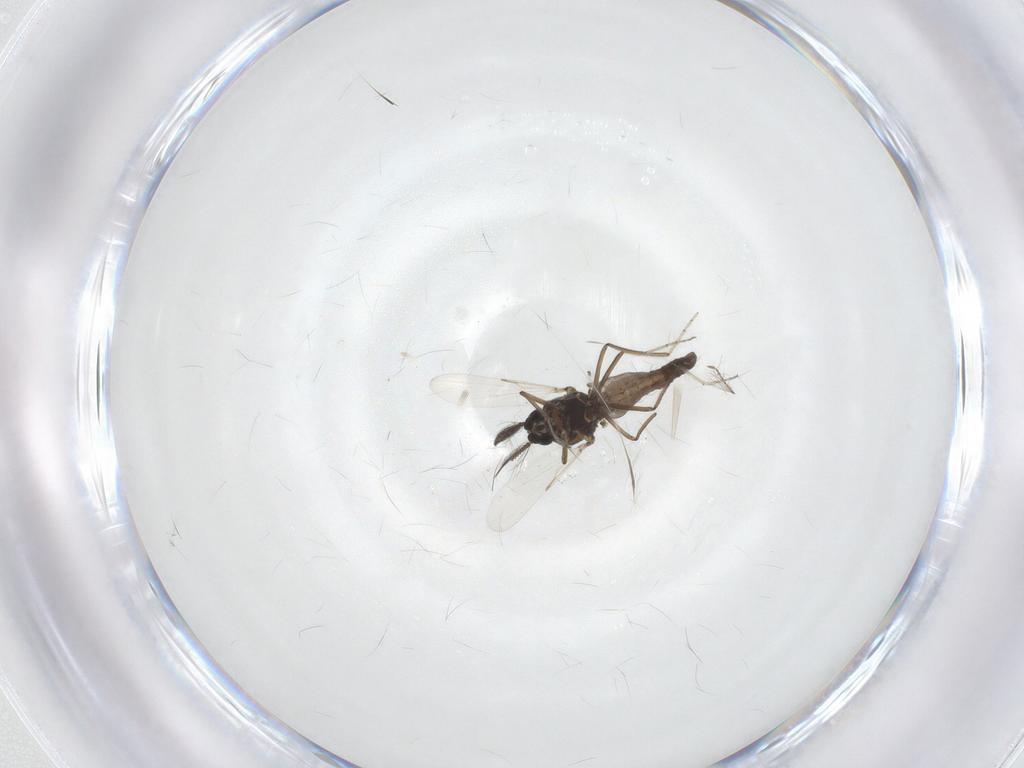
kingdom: Animalia
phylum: Arthropoda
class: Insecta
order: Diptera
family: Ceratopogonidae
